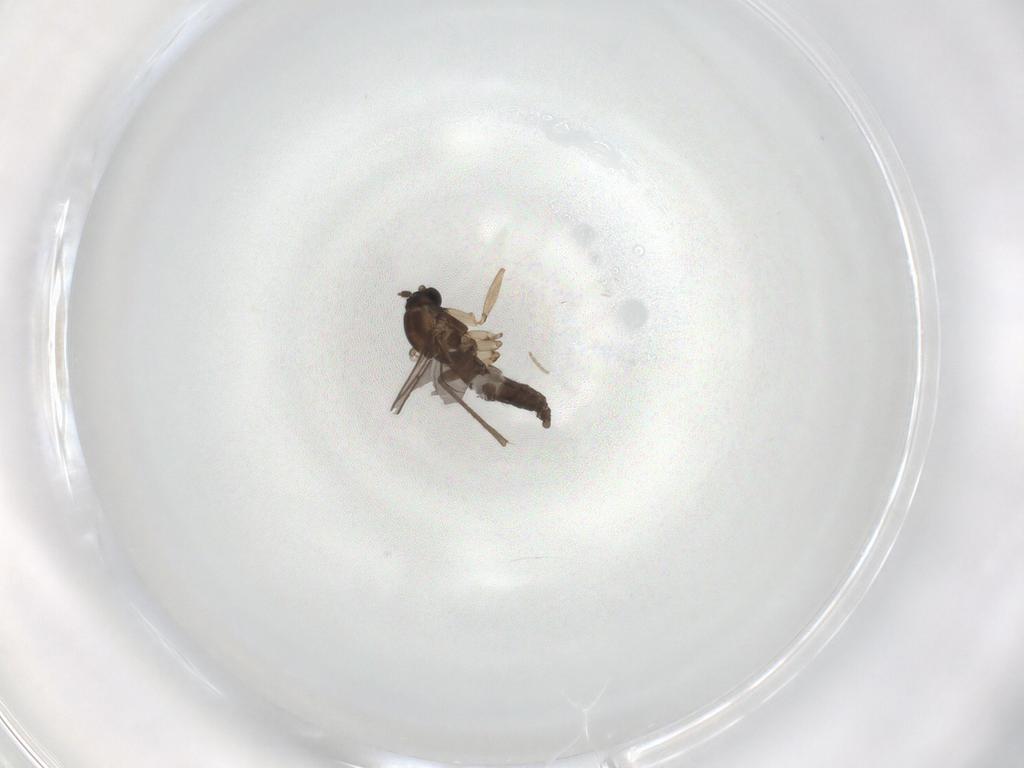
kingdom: Animalia
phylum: Arthropoda
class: Insecta
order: Diptera
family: Sciaridae
